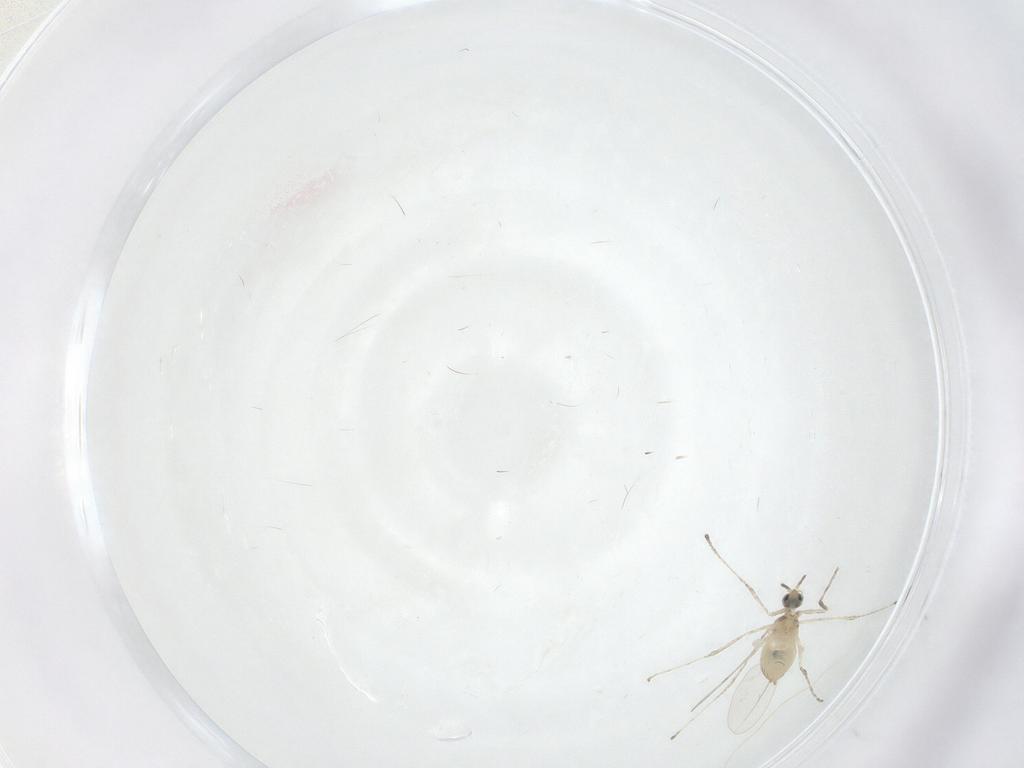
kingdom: Animalia
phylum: Arthropoda
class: Insecta
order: Diptera
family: Cecidomyiidae
